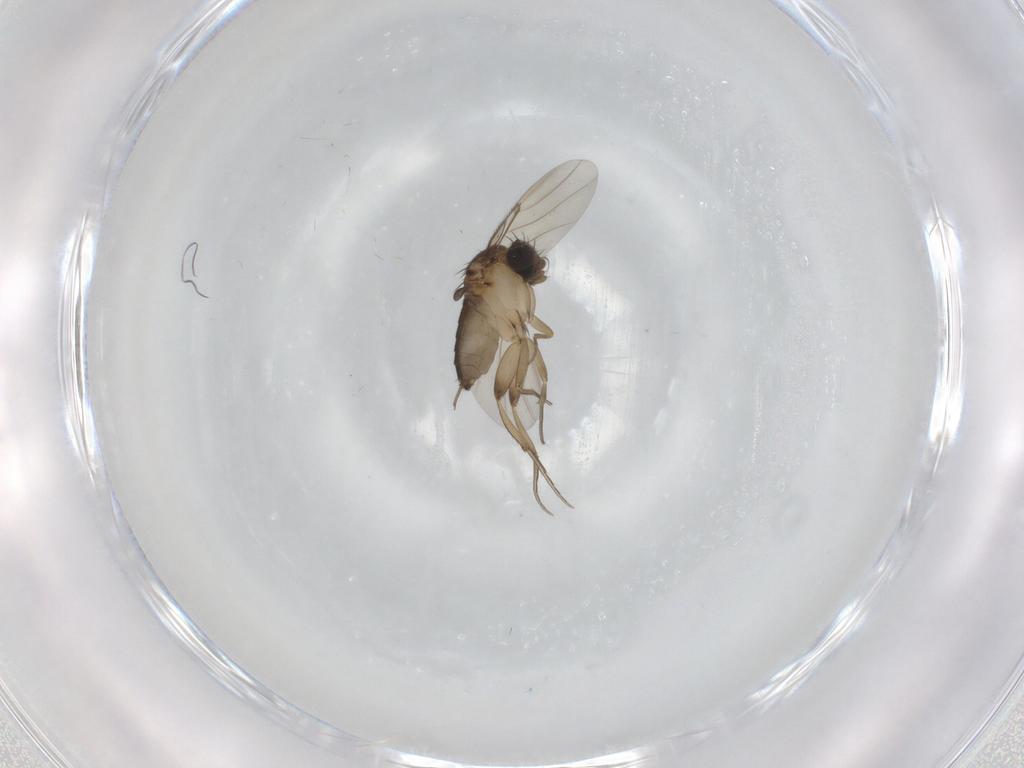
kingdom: Animalia
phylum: Arthropoda
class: Insecta
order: Diptera
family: Phoridae
